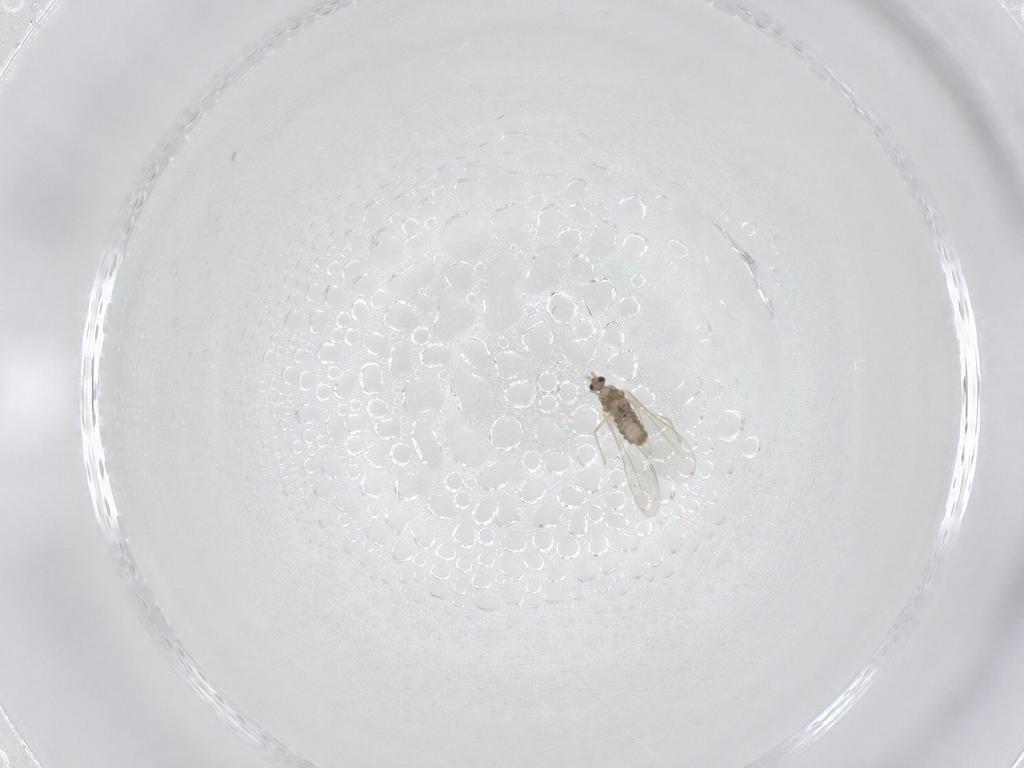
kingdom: Animalia
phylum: Arthropoda
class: Insecta
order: Diptera
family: Cecidomyiidae
